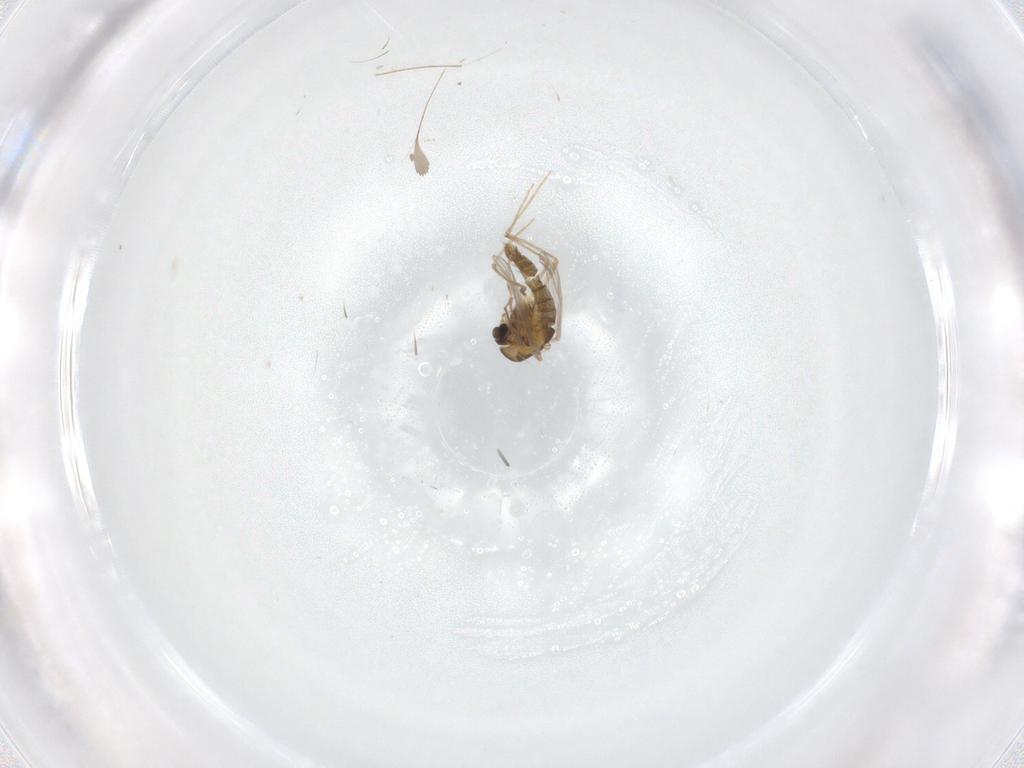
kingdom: Animalia
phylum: Arthropoda
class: Insecta
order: Diptera
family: Chironomidae
